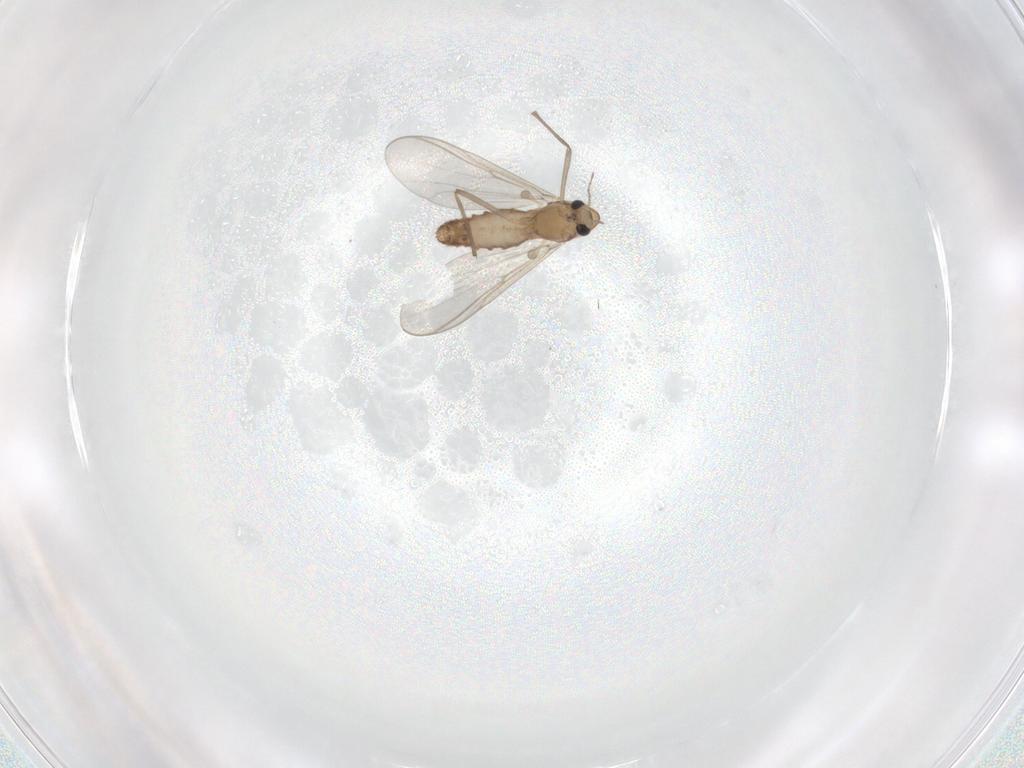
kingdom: Animalia
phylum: Arthropoda
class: Insecta
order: Diptera
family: Chironomidae
